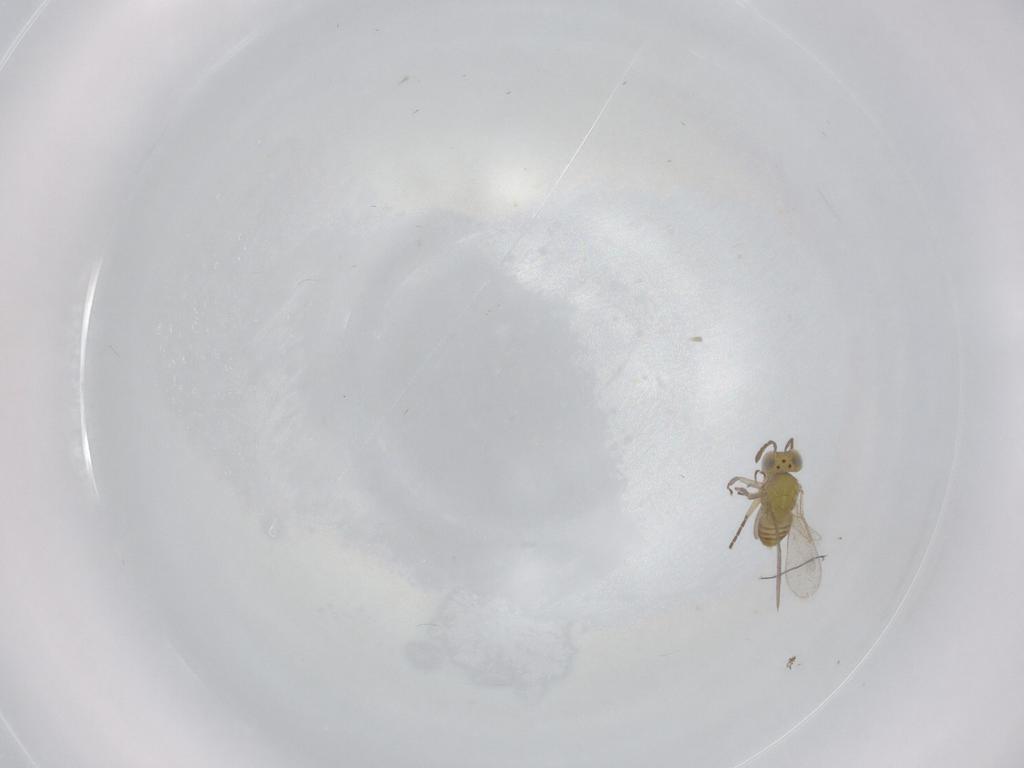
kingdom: Animalia
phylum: Arthropoda
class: Insecta
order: Hymenoptera
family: Aphelinidae
